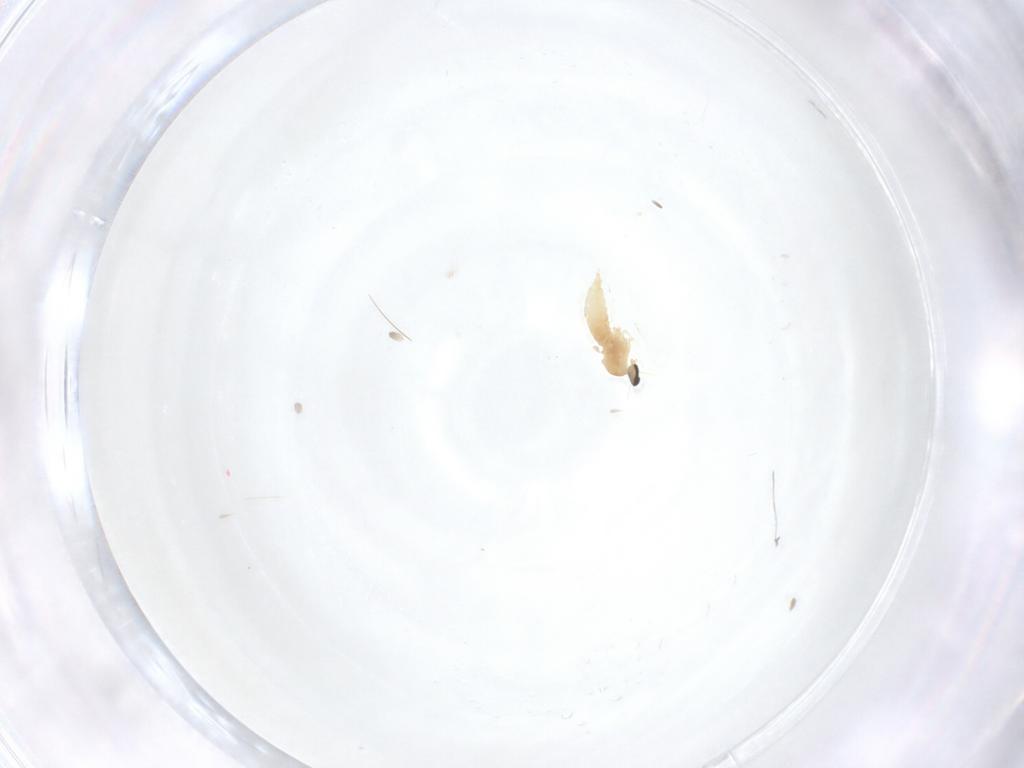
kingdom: Animalia
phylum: Arthropoda
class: Insecta
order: Diptera
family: Cecidomyiidae
